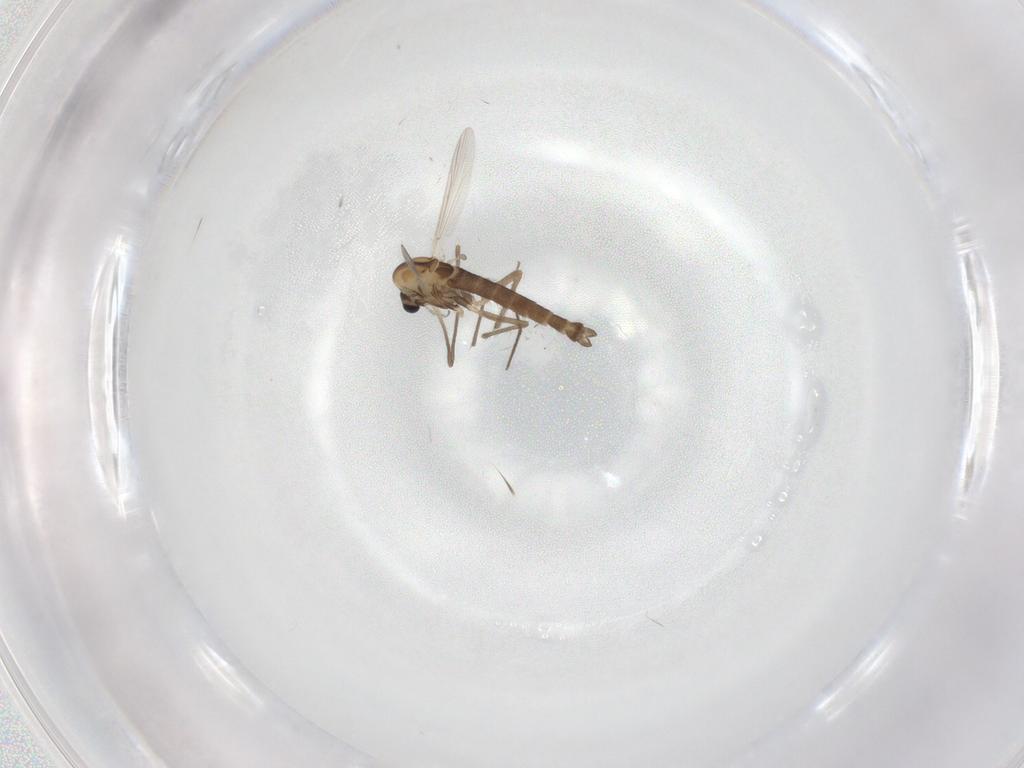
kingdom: Animalia
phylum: Arthropoda
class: Insecta
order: Diptera
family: Chironomidae
